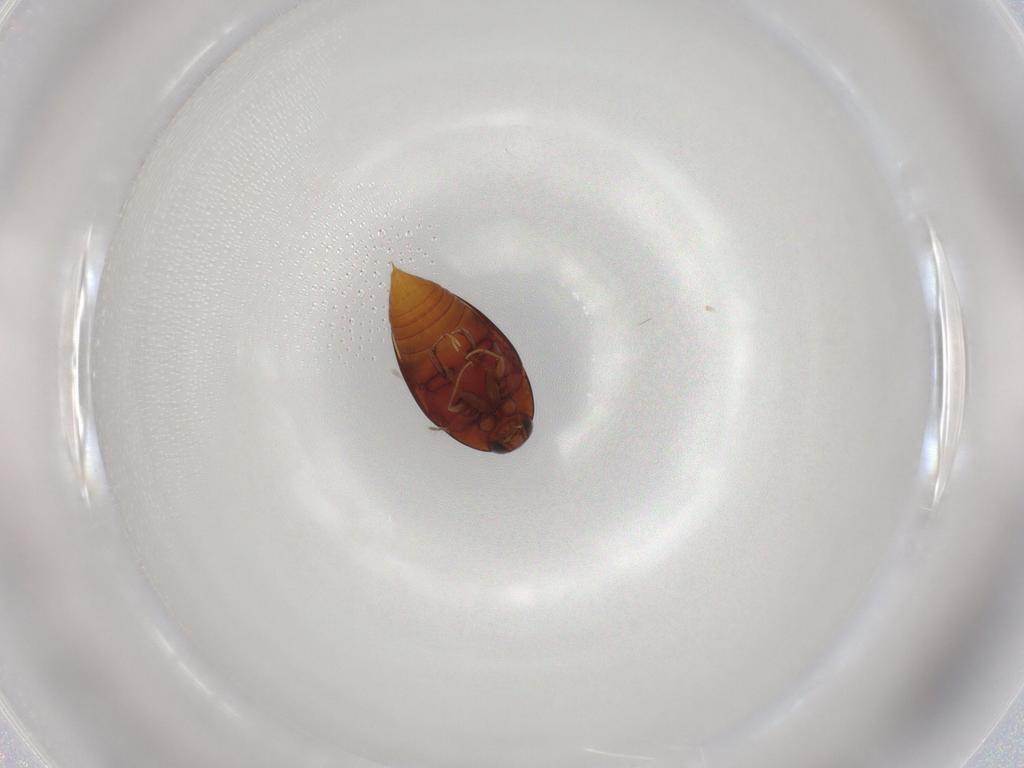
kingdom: Animalia
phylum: Arthropoda
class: Insecta
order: Coleoptera
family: Staphylinidae
